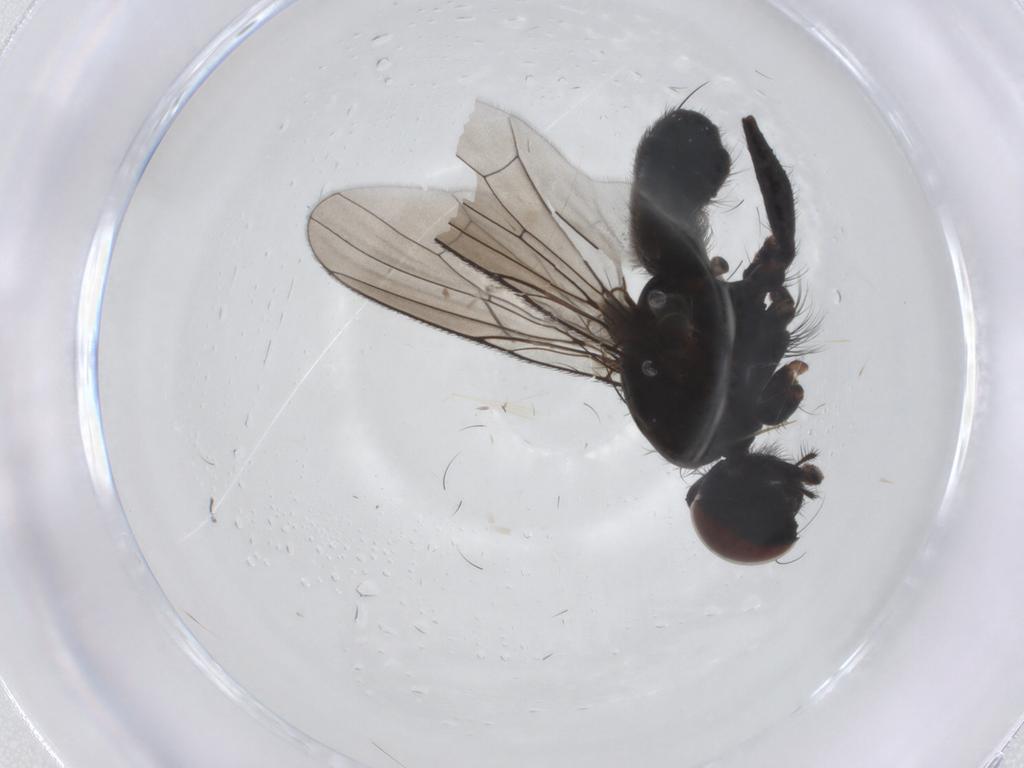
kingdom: Animalia
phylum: Arthropoda
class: Insecta
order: Diptera
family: Muscidae
